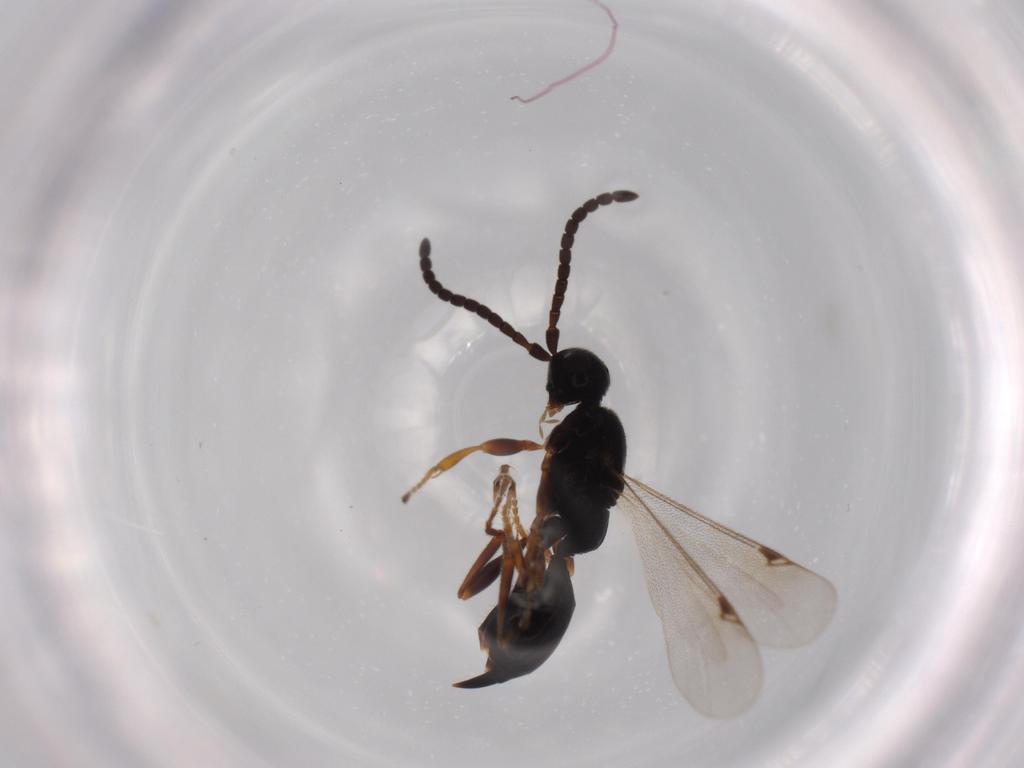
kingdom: Animalia
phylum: Arthropoda
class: Insecta
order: Hymenoptera
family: Proctotrupidae
